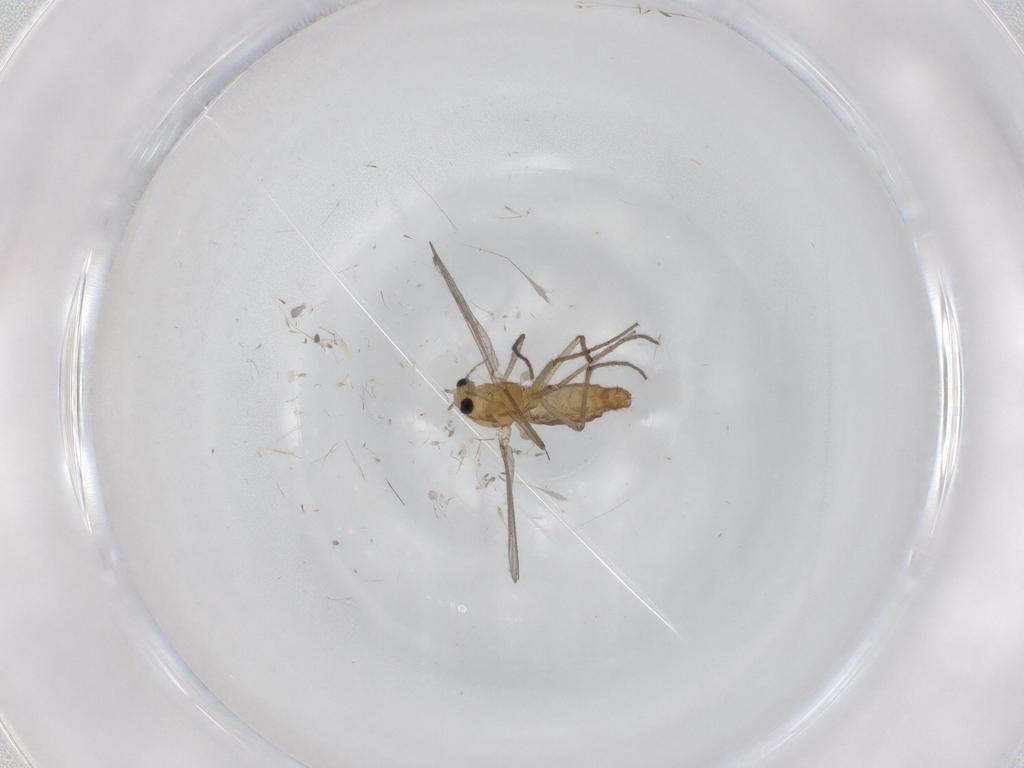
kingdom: Animalia
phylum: Arthropoda
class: Insecta
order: Diptera
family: Chironomidae
